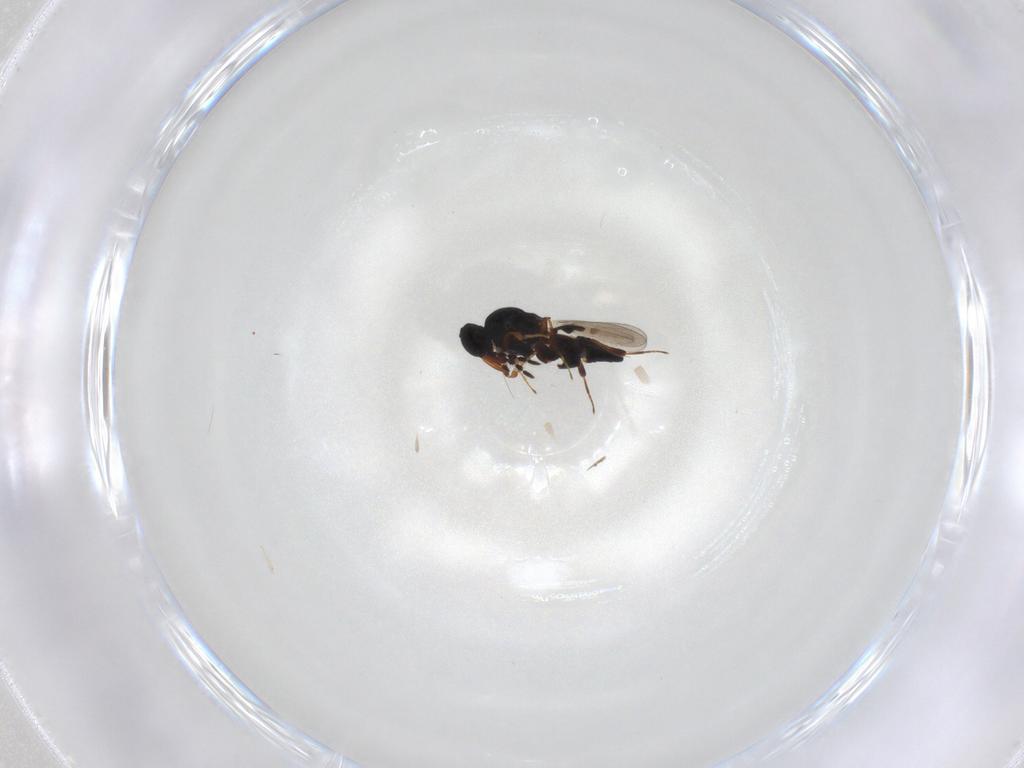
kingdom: Animalia
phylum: Arthropoda
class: Insecta
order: Hymenoptera
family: Platygastridae
